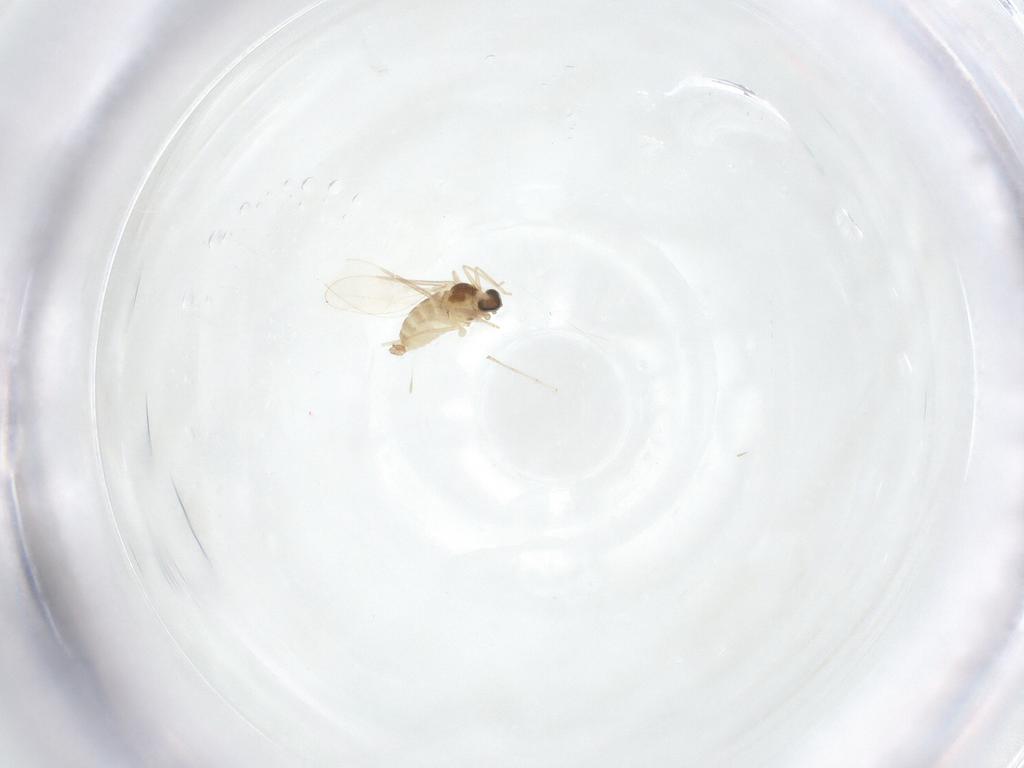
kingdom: Animalia
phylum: Arthropoda
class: Insecta
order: Diptera
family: Cecidomyiidae
